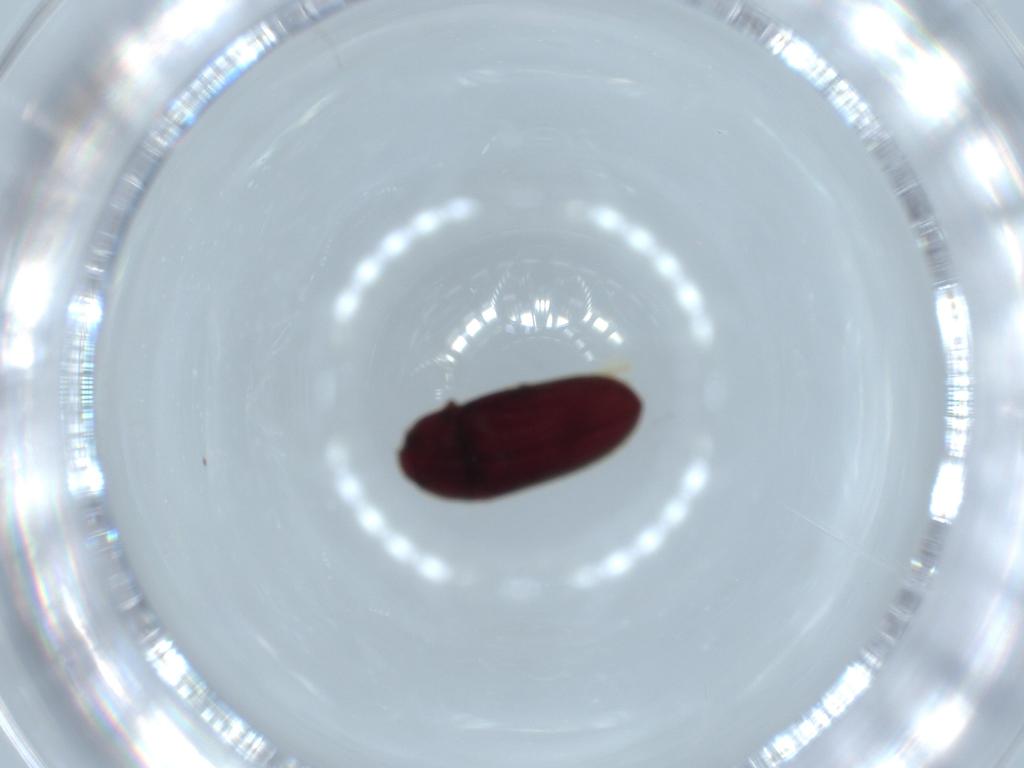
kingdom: Animalia
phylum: Arthropoda
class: Insecta
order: Coleoptera
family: Throscidae
